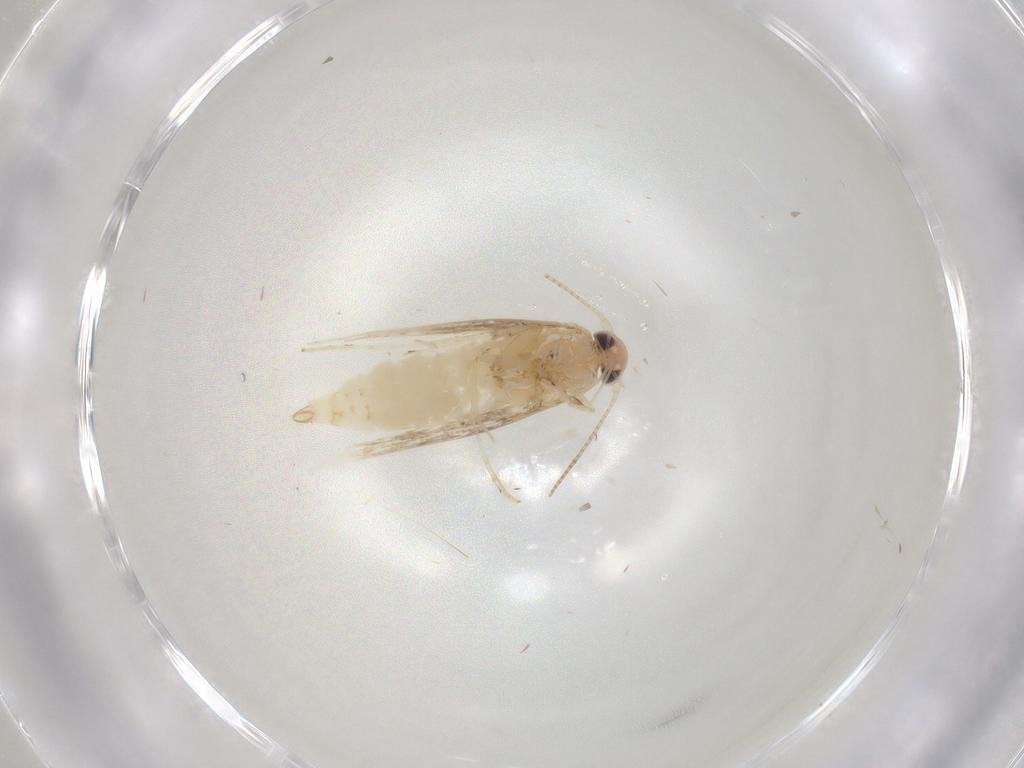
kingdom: Animalia
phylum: Arthropoda
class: Insecta
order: Lepidoptera
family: Gracillariidae
